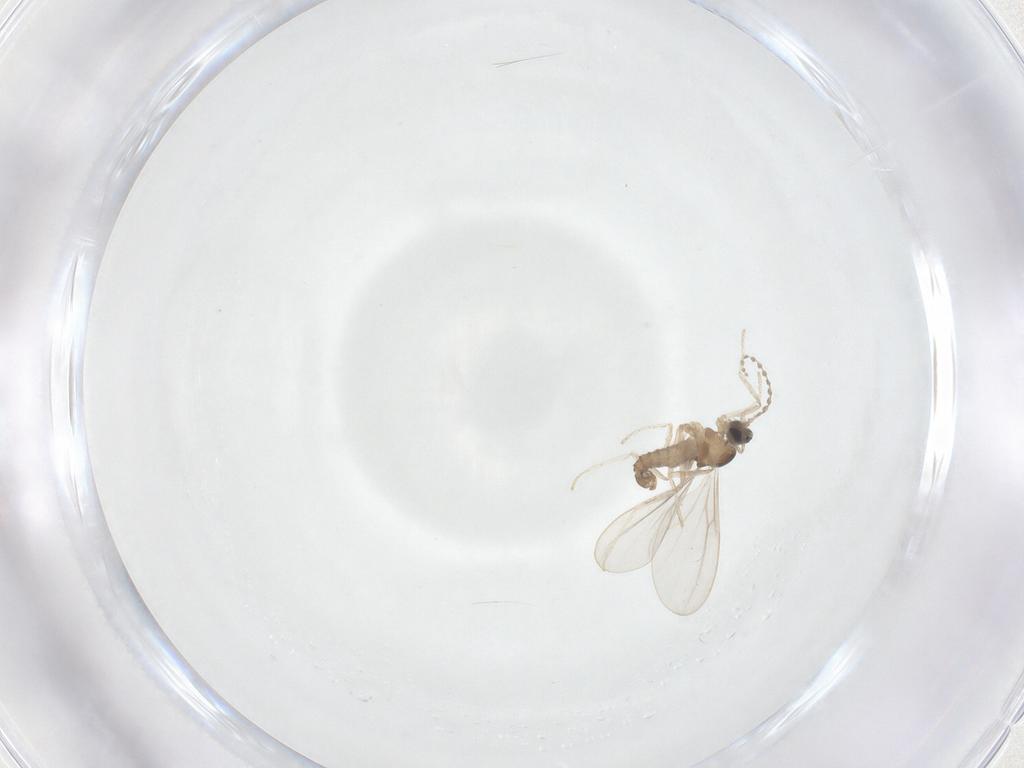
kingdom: Animalia
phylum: Arthropoda
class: Insecta
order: Diptera
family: Cecidomyiidae
